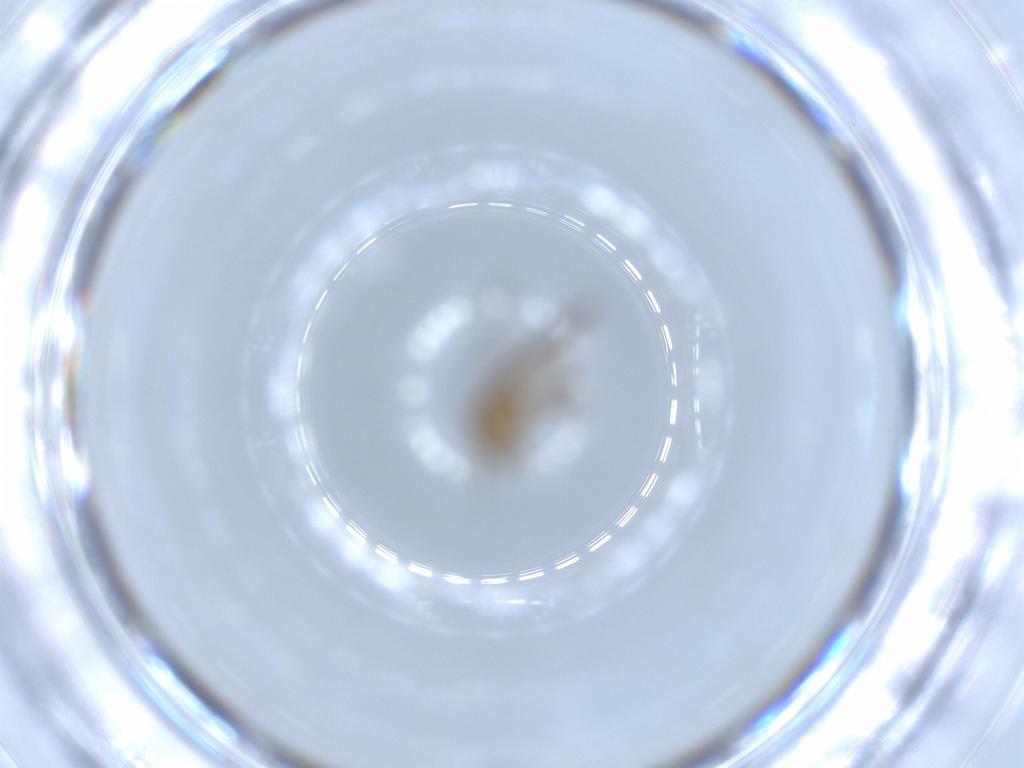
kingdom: Animalia
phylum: Arthropoda
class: Insecta
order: Diptera
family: Chironomidae
